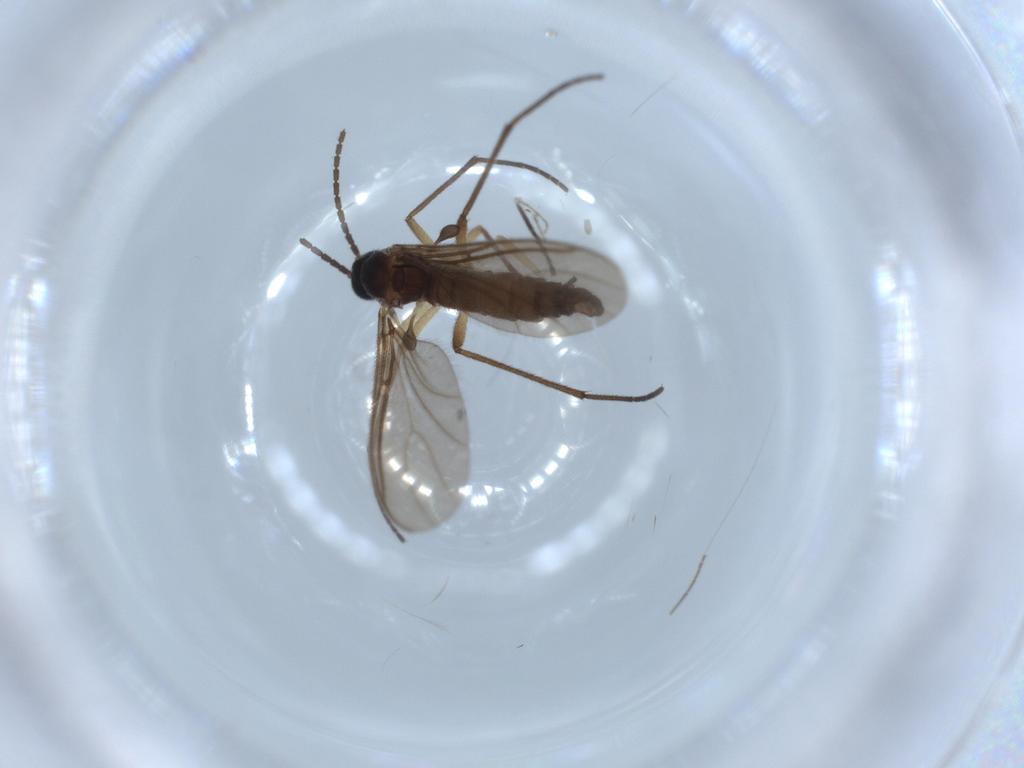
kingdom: Animalia
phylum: Arthropoda
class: Insecta
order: Diptera
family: Sciaridae
